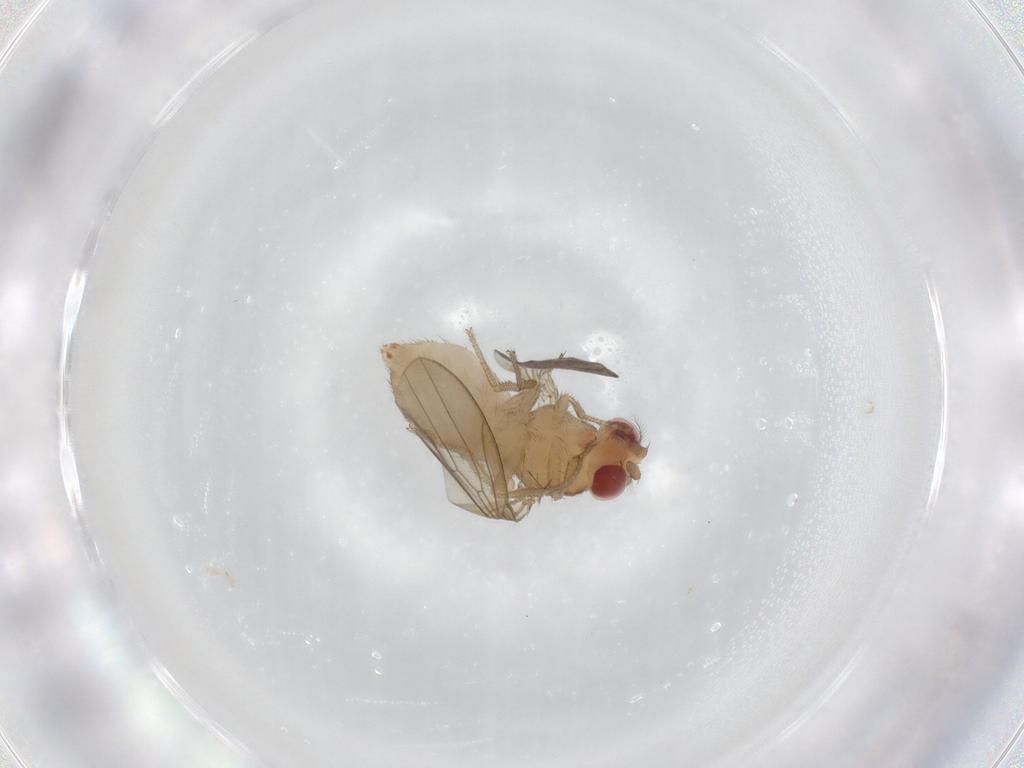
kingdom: Animalia
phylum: Arthropoda
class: Insecta
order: Diptera
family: Drosophilidae
